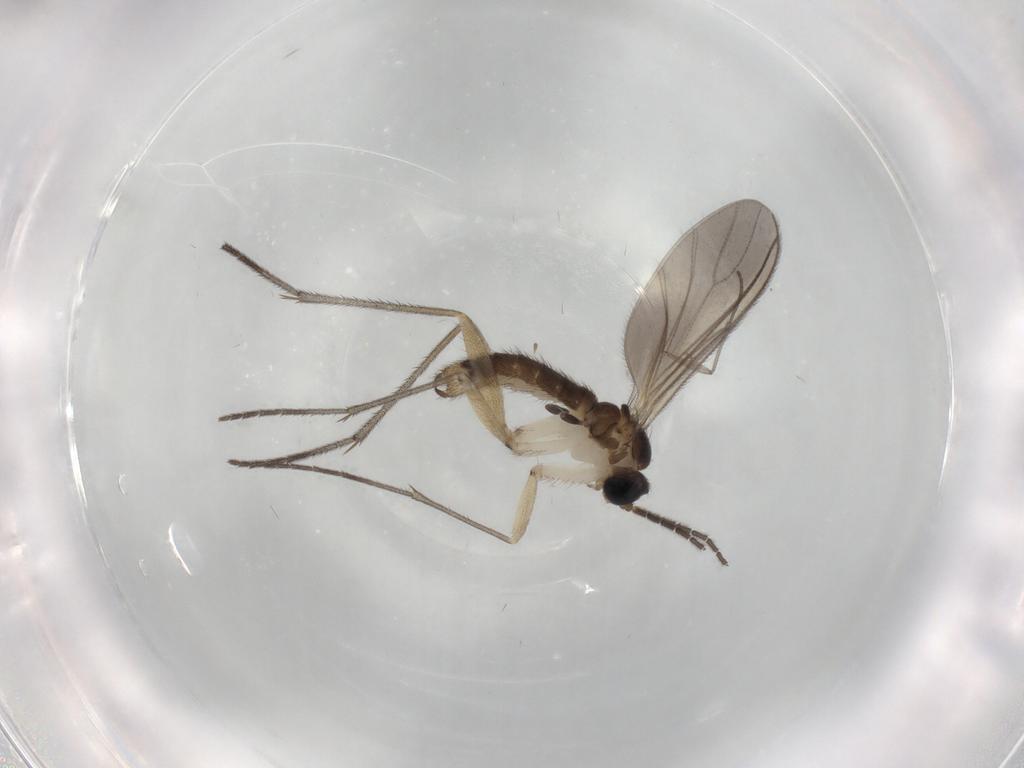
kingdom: Animalia
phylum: Arthropoda
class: Insecta
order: Diptera
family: Sciaridae
